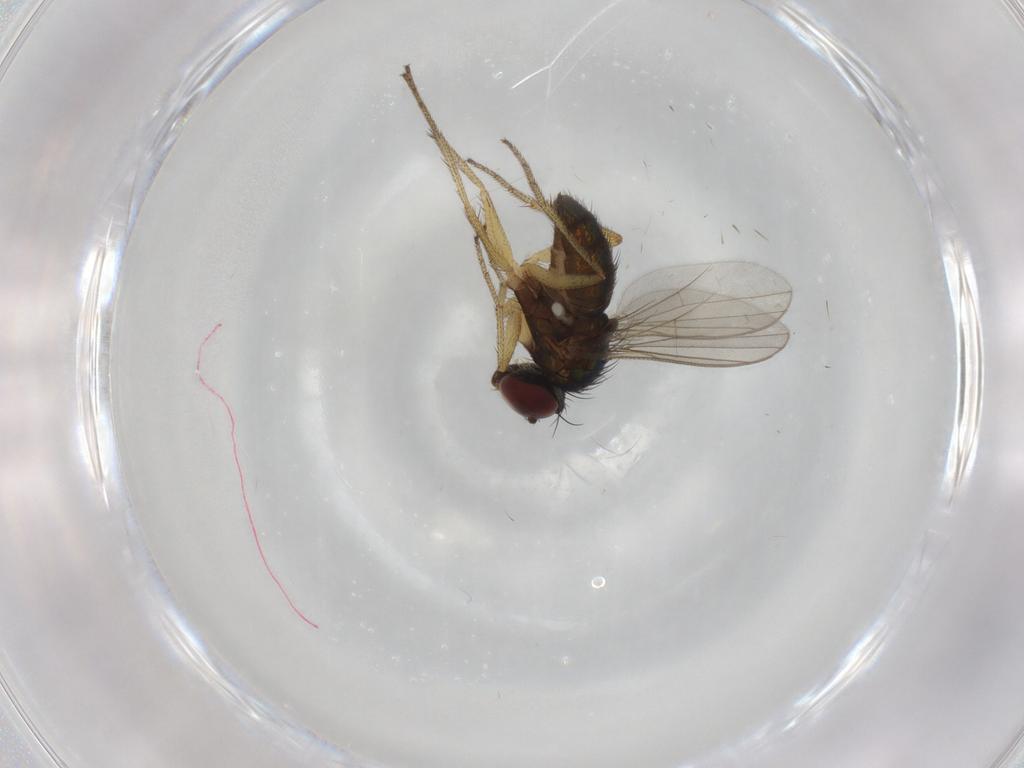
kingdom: Animalia
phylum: Arthropoda
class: Insecta
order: Diptera
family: Dolichopodidae
